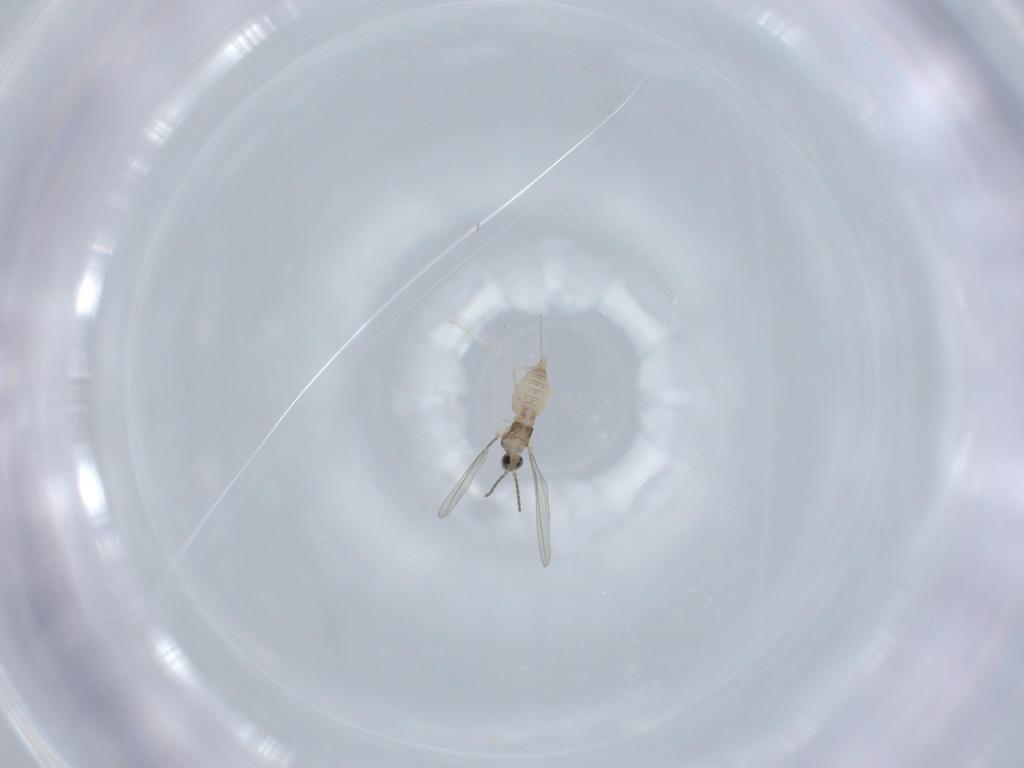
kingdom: Animalia
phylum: Arthropoda
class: Insecta
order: Diptera
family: Cecidomyiidae
